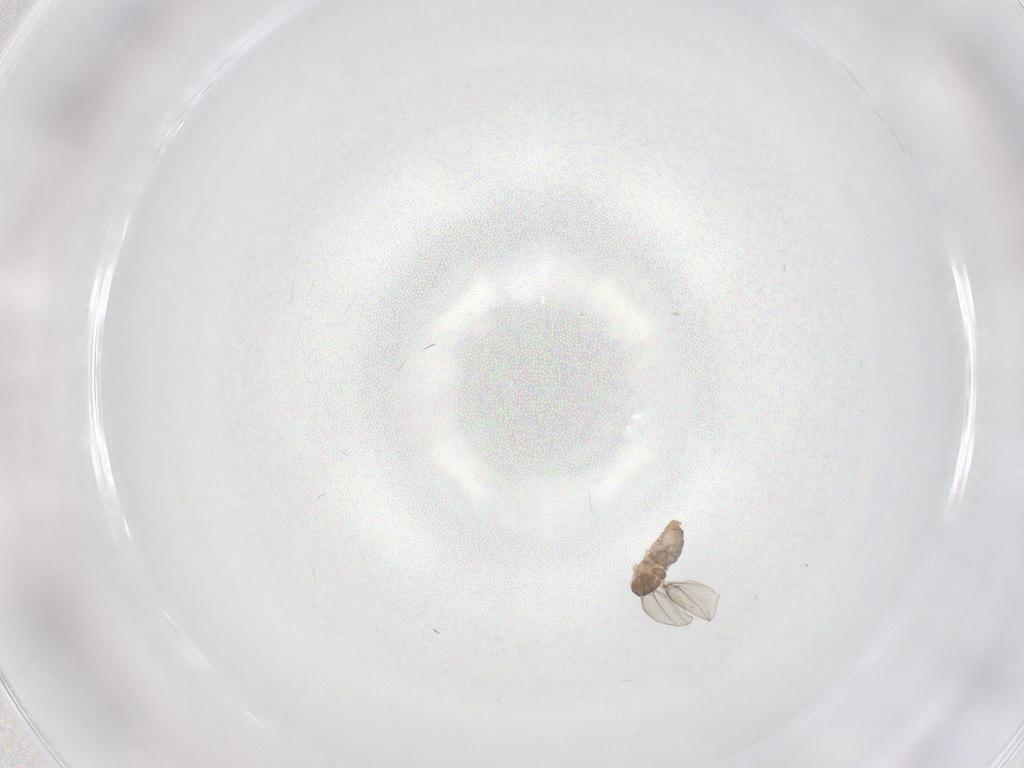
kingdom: Animalia
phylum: Arthropoda
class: Insecta
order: Diptera
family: Cecidomyiidae
